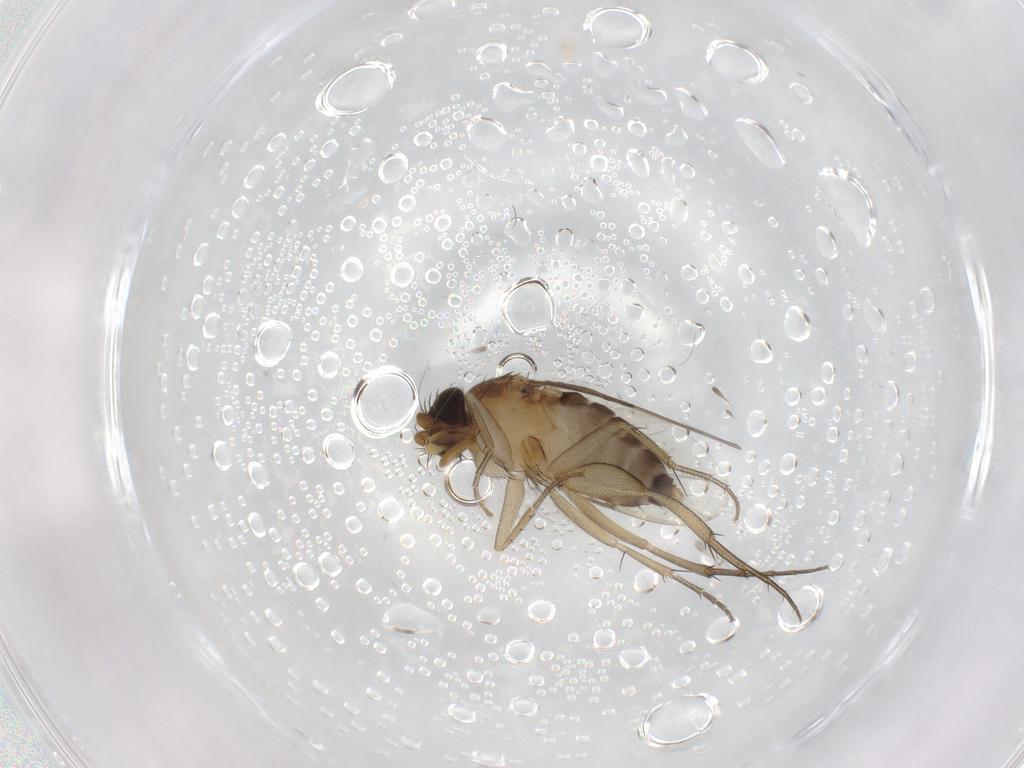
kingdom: Animalia
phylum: Arthropoda
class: Insecta
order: Diptera
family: Phoridae
